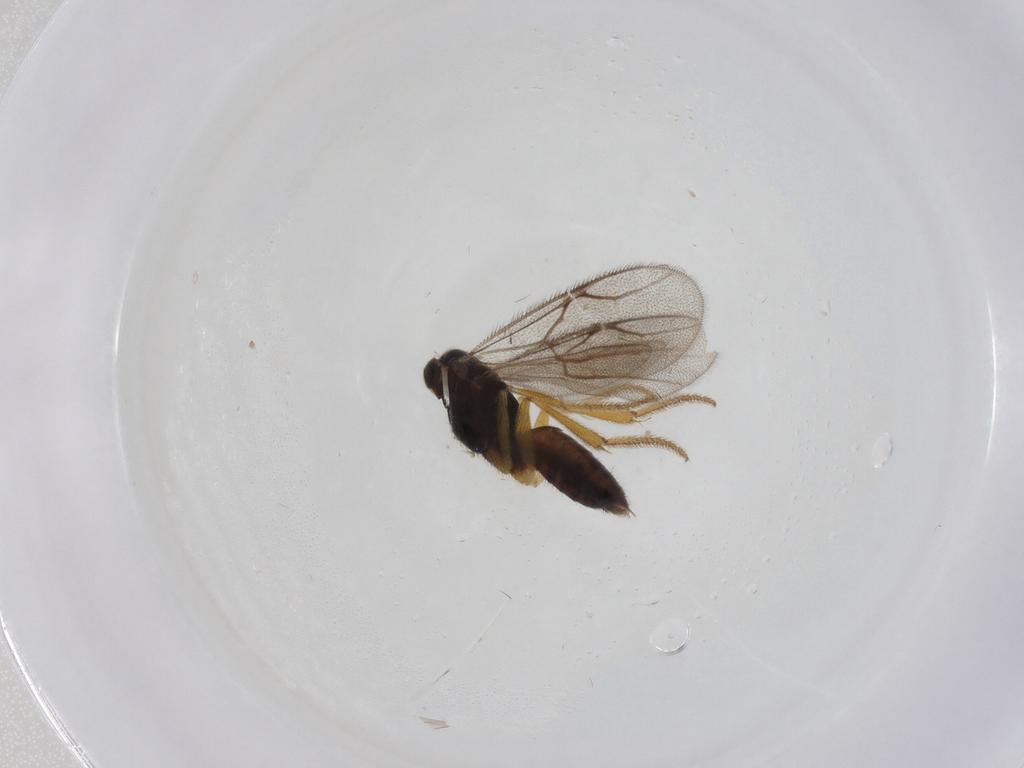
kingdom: Animalia
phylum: Arthropoda
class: Insecta
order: Hymenoptera
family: Dryinidae
